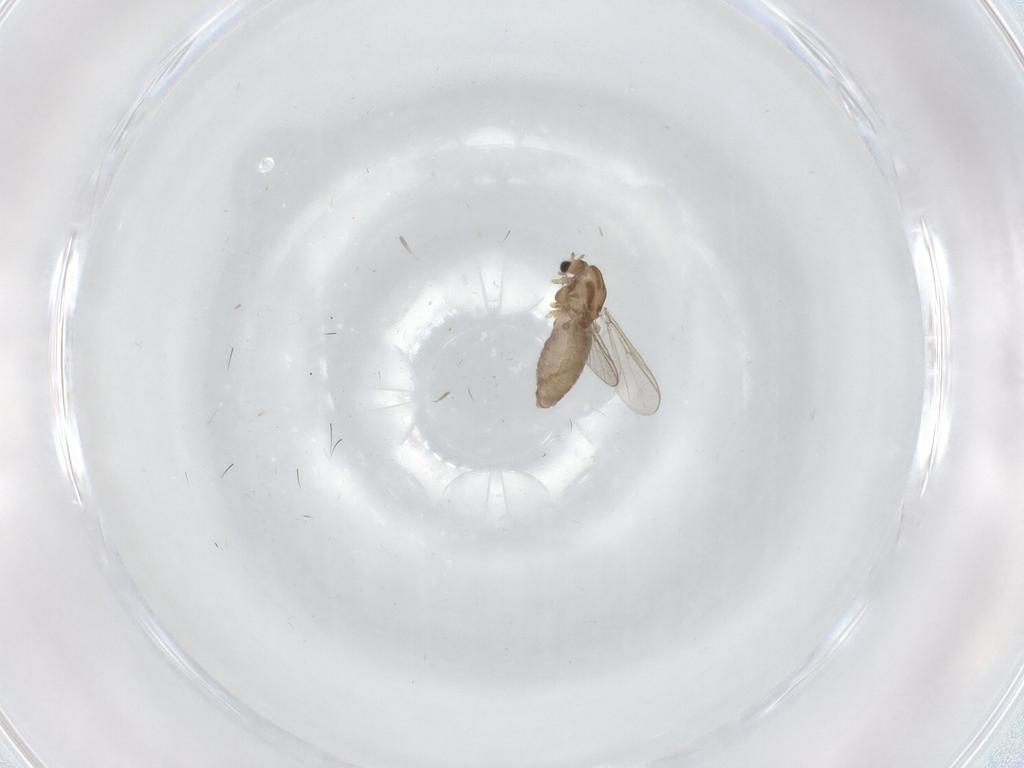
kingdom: Animalia
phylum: Arthropoda
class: Insecta
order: Diptera
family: Chironomidae
